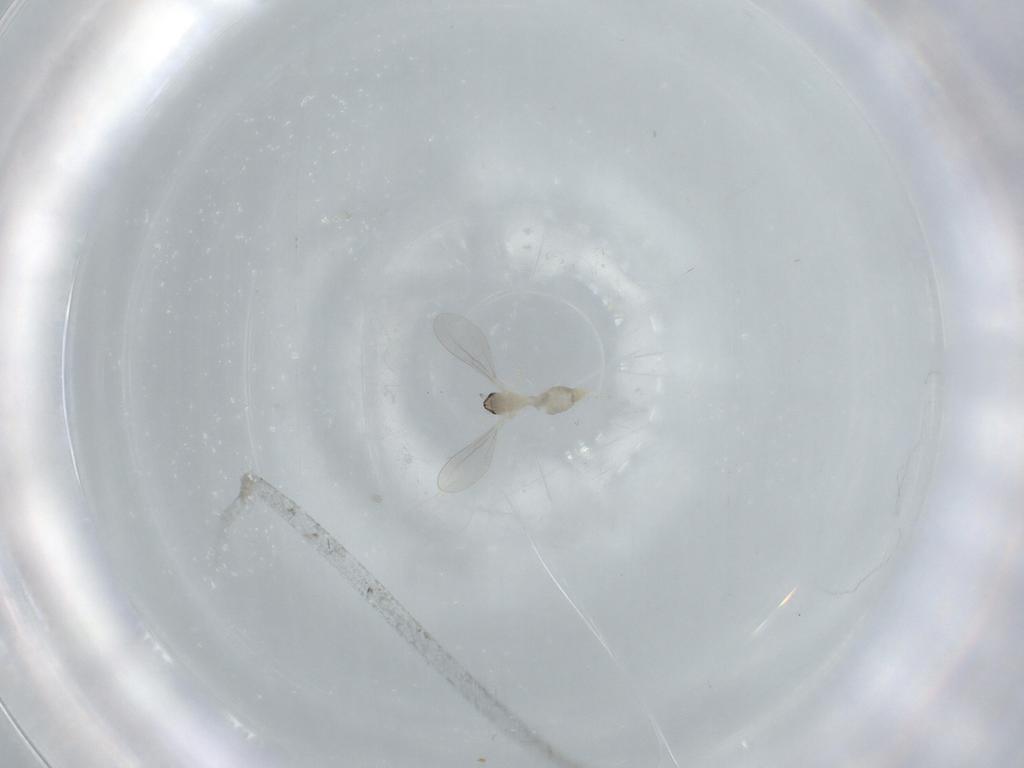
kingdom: Animalia
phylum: Arthropoda
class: Insecta
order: Diptera
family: Cecidomyiidae
